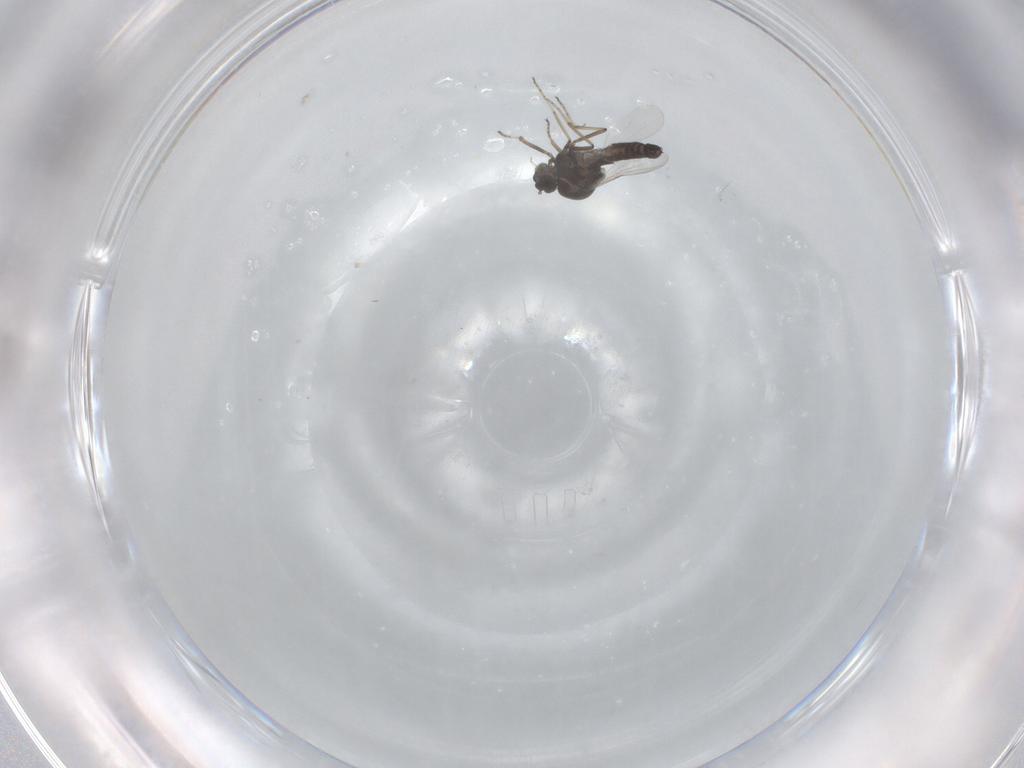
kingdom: Animalia
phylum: Arthropoda
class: Insecta
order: Diptera
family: Ceratopogonidae
